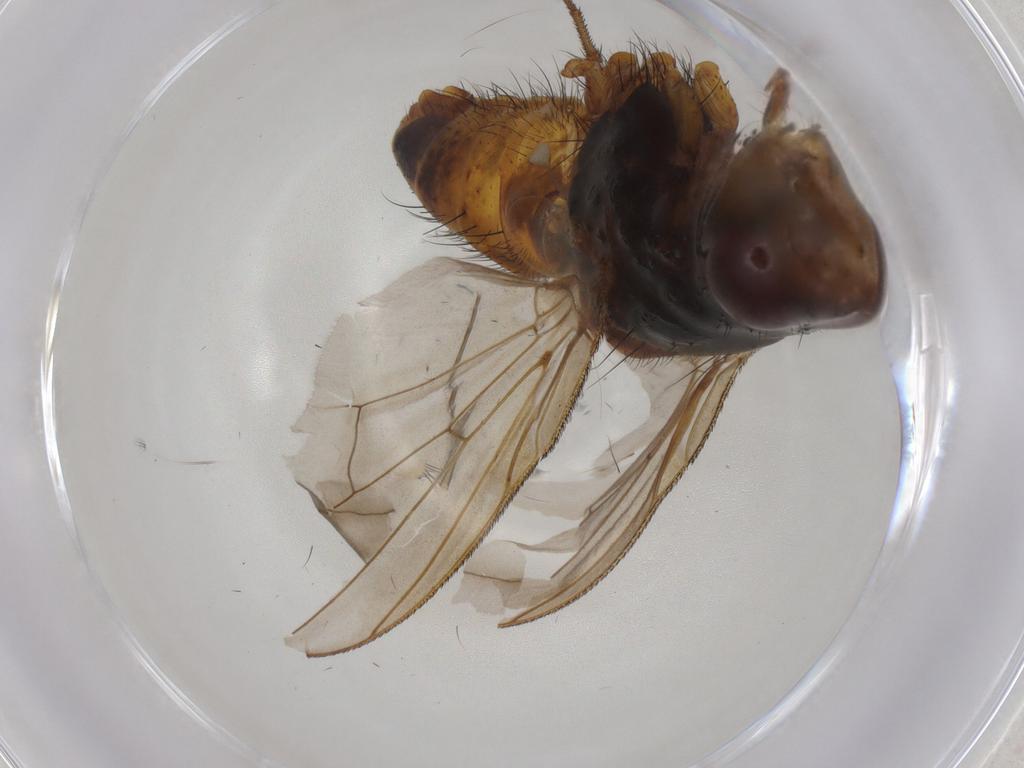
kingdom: Animalia
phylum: Arthropoda
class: Insecta
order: Diptera
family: Tachinidae
